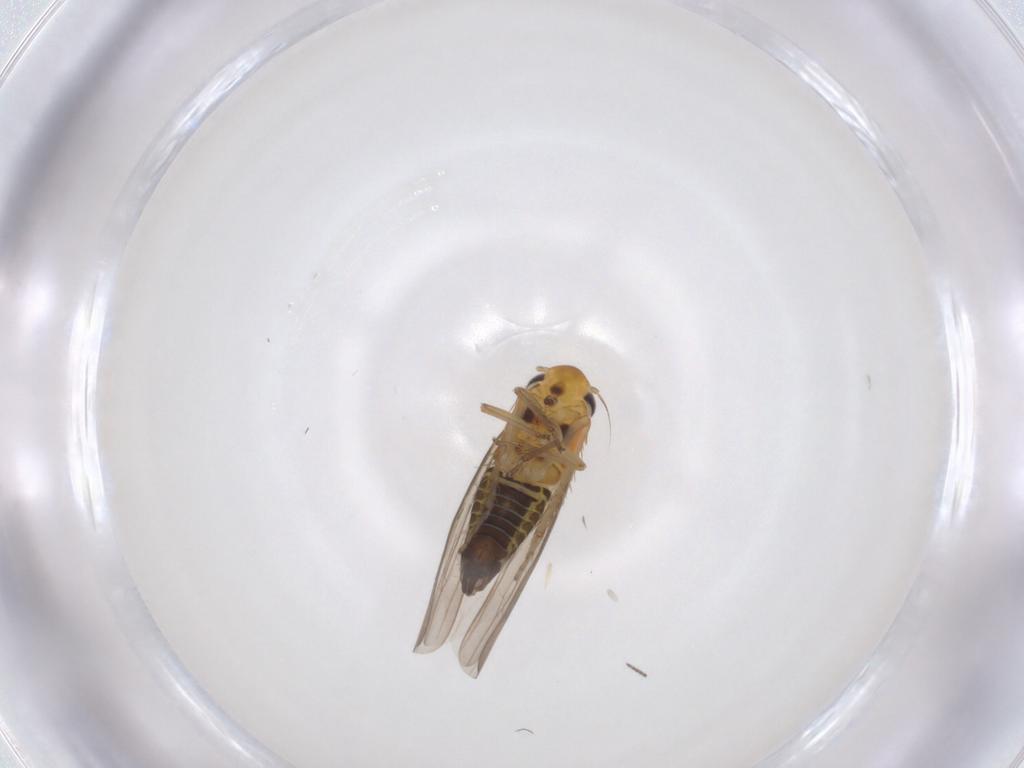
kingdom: Animalia
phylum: Arthropoda
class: Insecta
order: Hemiptera
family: Cicadellidae
